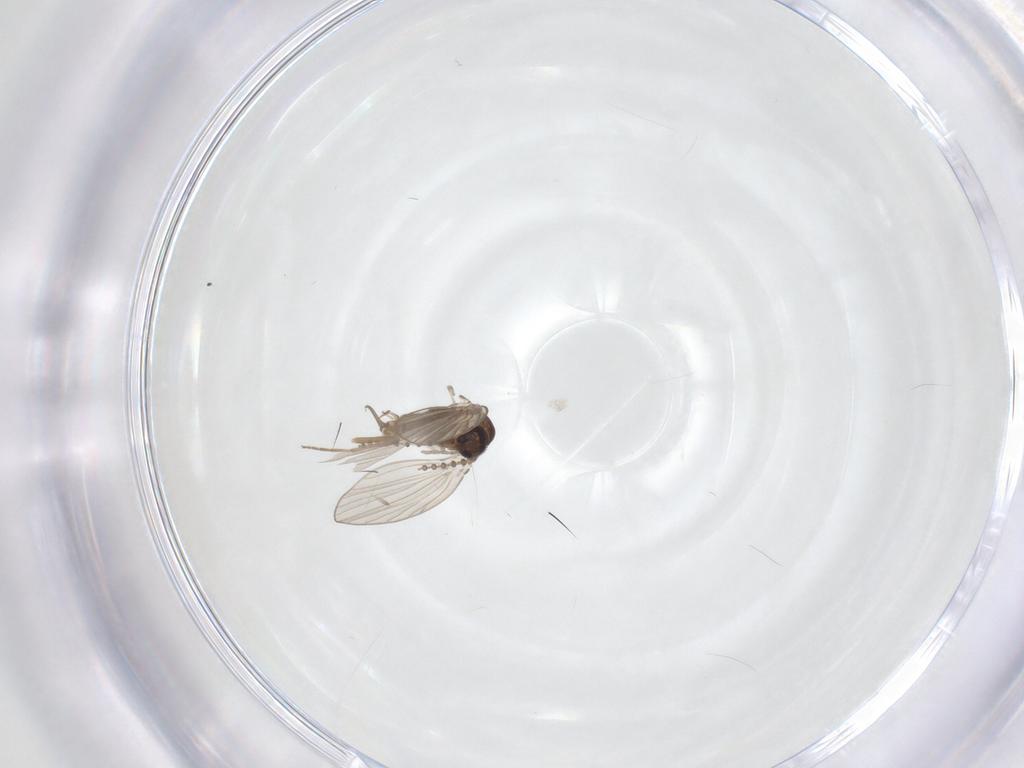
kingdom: Animalia
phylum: Arthropoda
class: Insecta
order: Diptera
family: Psychodidae
